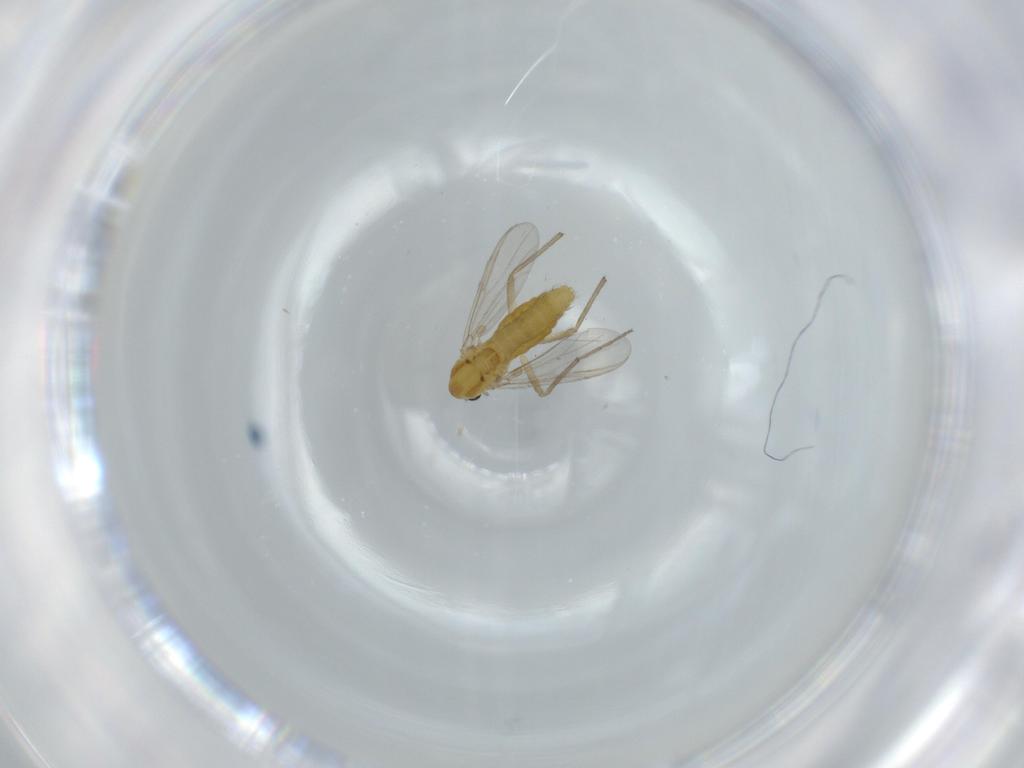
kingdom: Animalia
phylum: Arthropoda
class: Insecta
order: Diptera
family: Chironomidae
